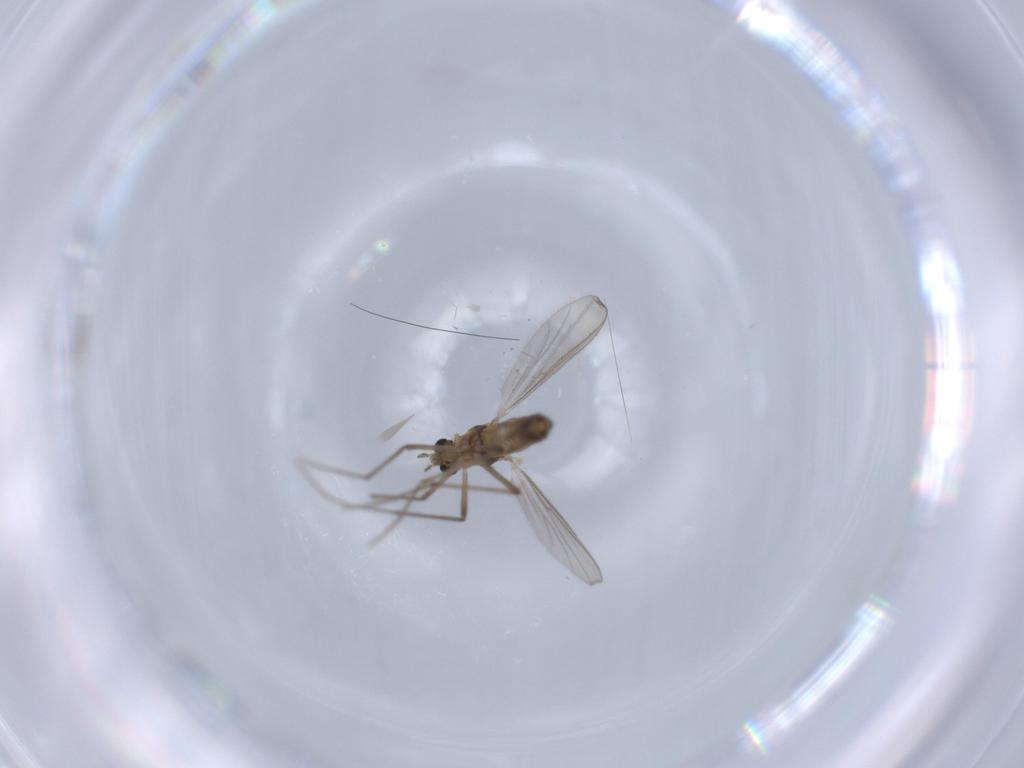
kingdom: Animalia
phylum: Arthropoda
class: Insecta
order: Diptera
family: Chironomidae
